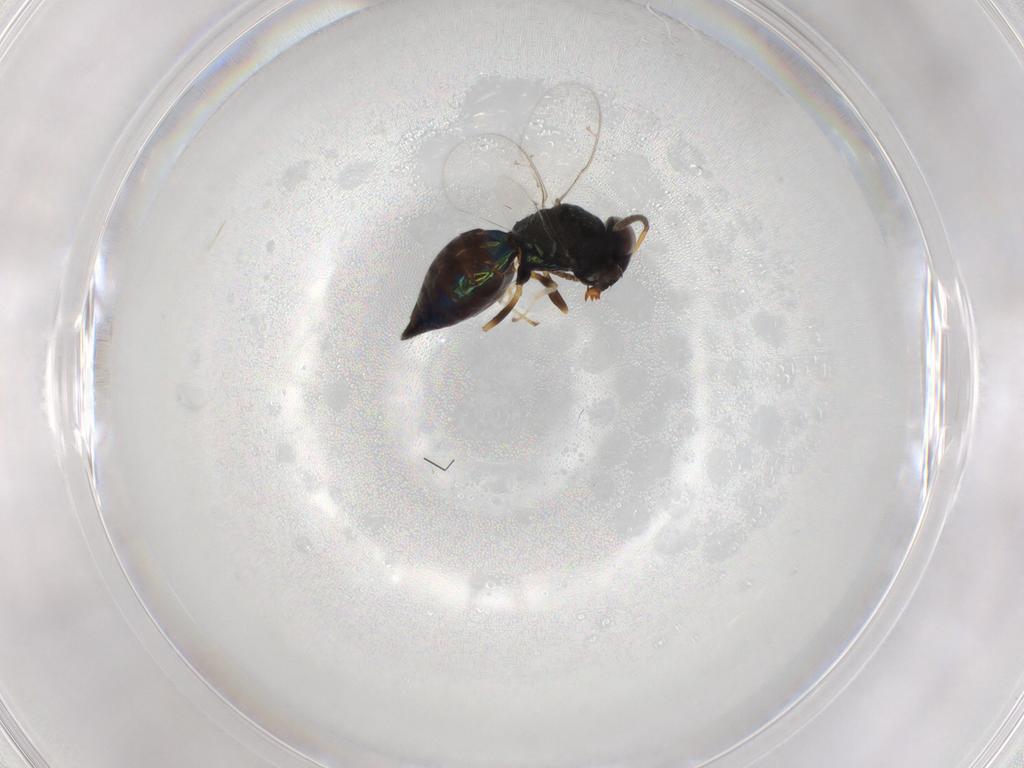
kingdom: Animalia
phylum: Arthropoda
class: Insecta
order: Hymenoptera
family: Pteromalidae
